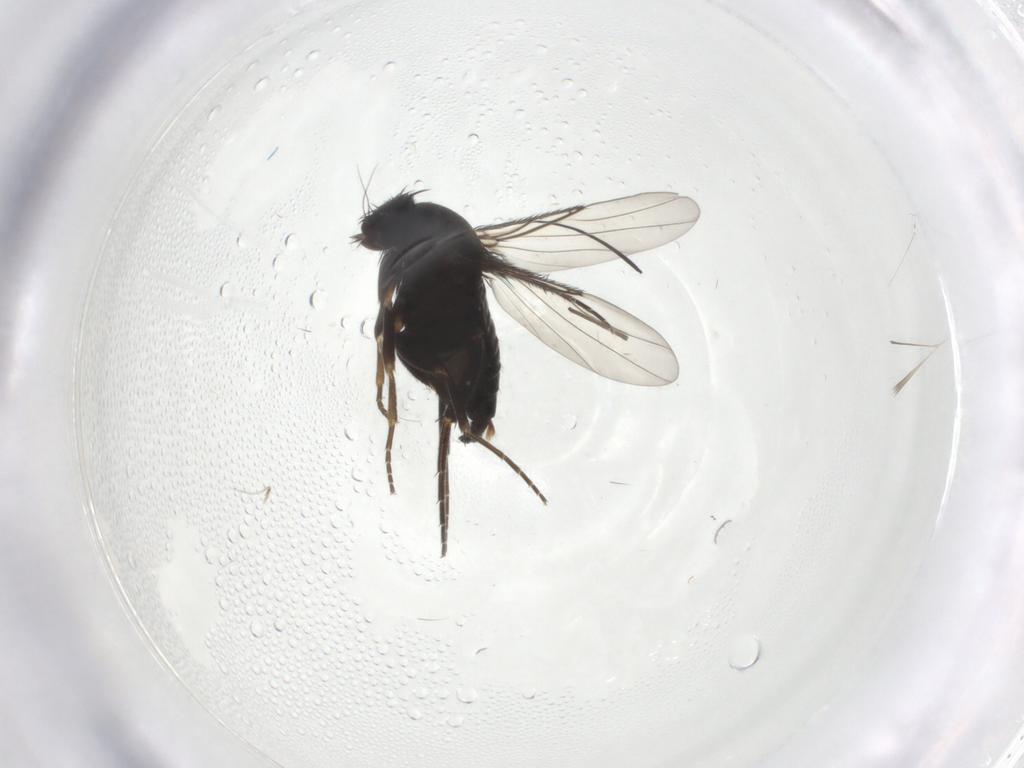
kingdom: Animalia
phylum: Arthropoda
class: Insecta
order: Diptera
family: Phoridae
